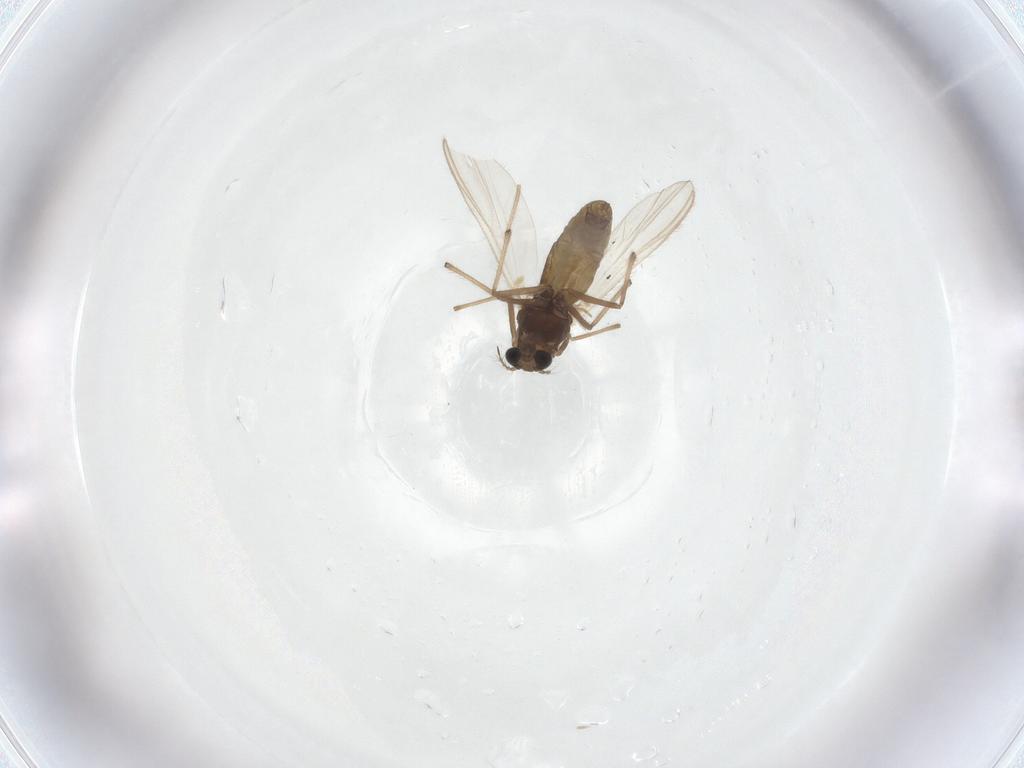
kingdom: Animalia
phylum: Arthropoda
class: Insecta
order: Diptera
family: Chironomidae
